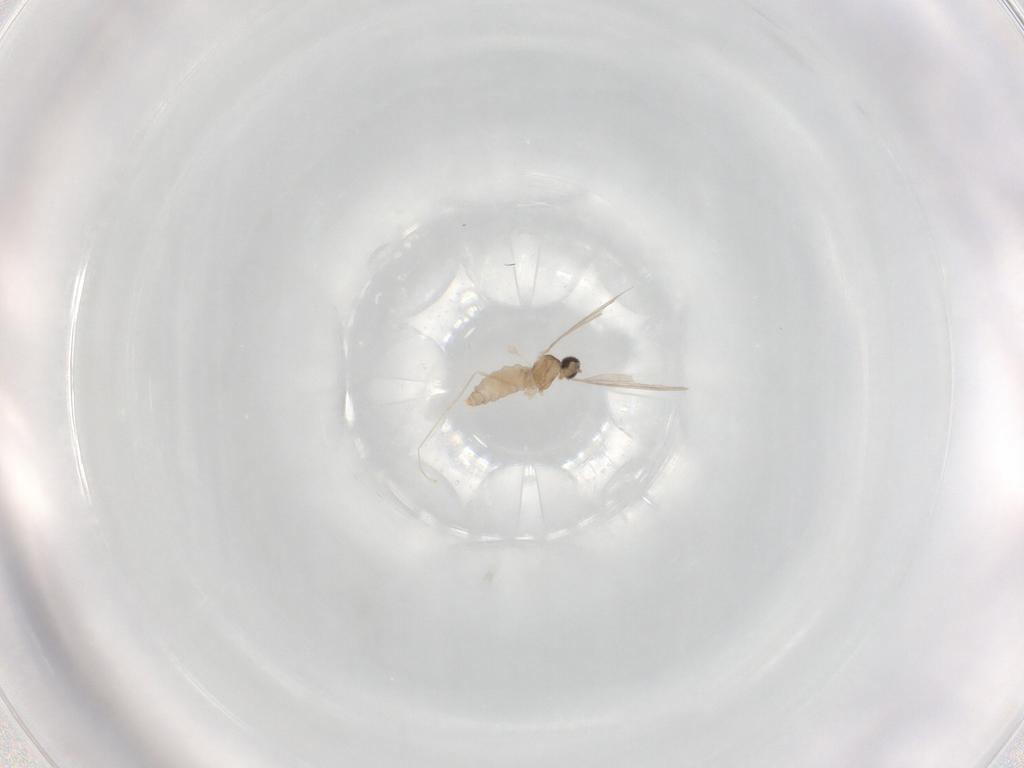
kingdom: Animalia
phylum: Arthropoda
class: Insecta
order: Diptera
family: Cecidomyiidae
